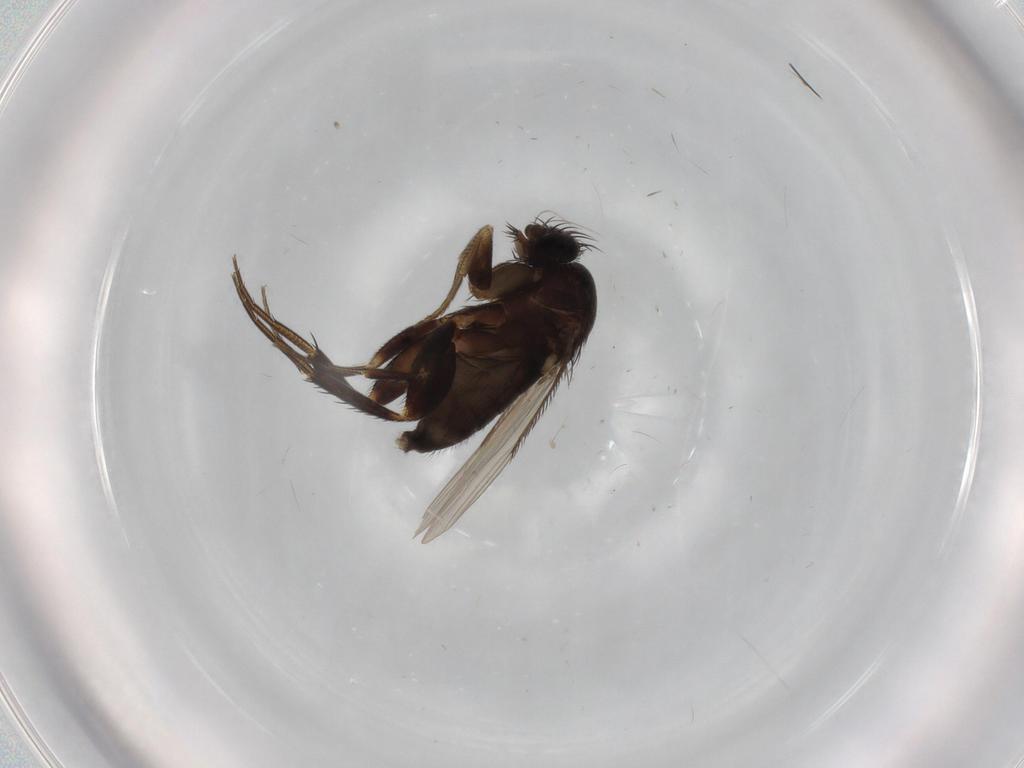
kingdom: Animalia
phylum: Arthropoda
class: Insecta
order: Diptera
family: Phoridae
